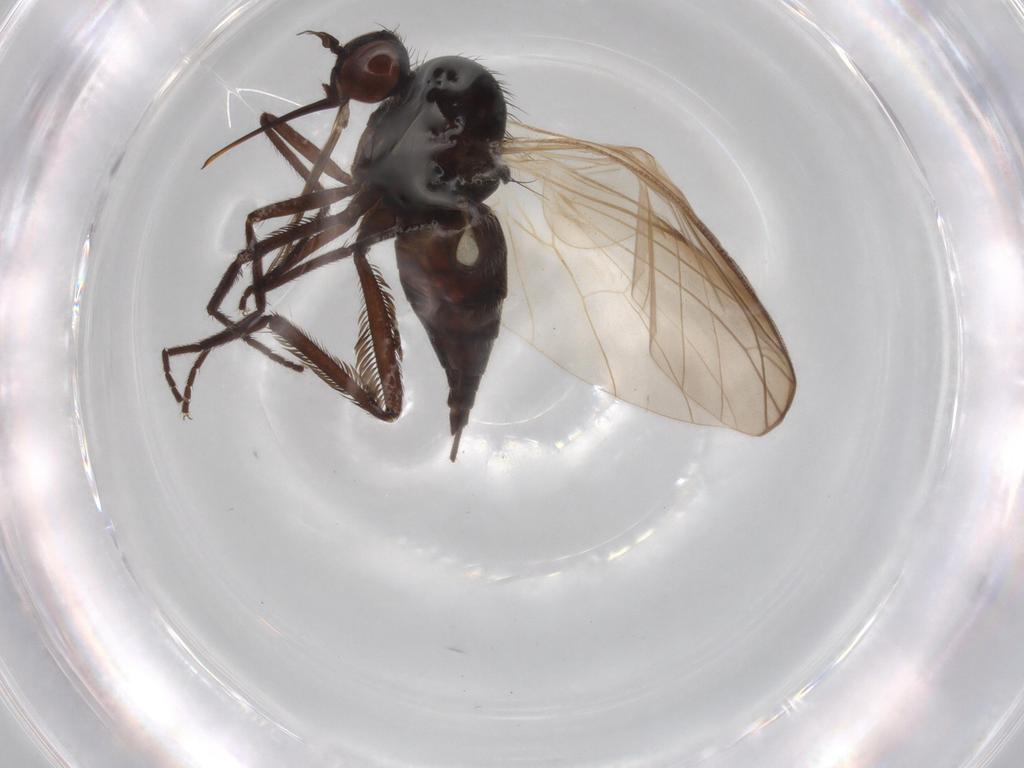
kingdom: Animalia
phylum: Arthropoda
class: Insecta
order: Diptera
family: Empididae
